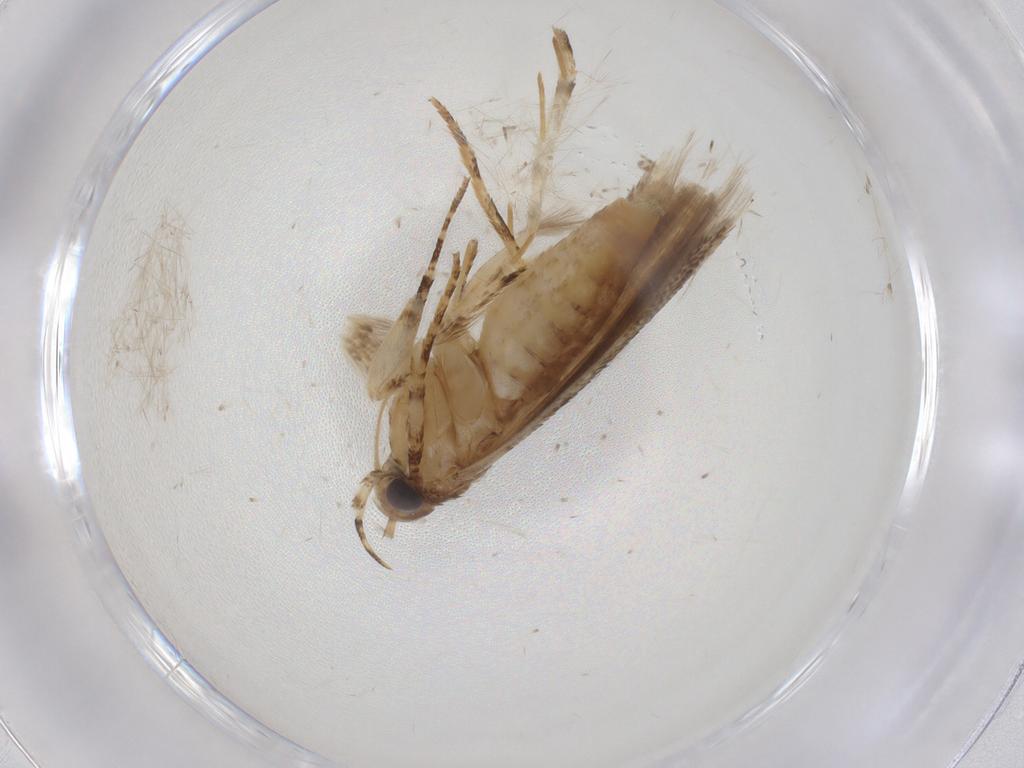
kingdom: Animalia
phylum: Arthropoda
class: Insecta
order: Lepidoptera
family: Gelechiidae
